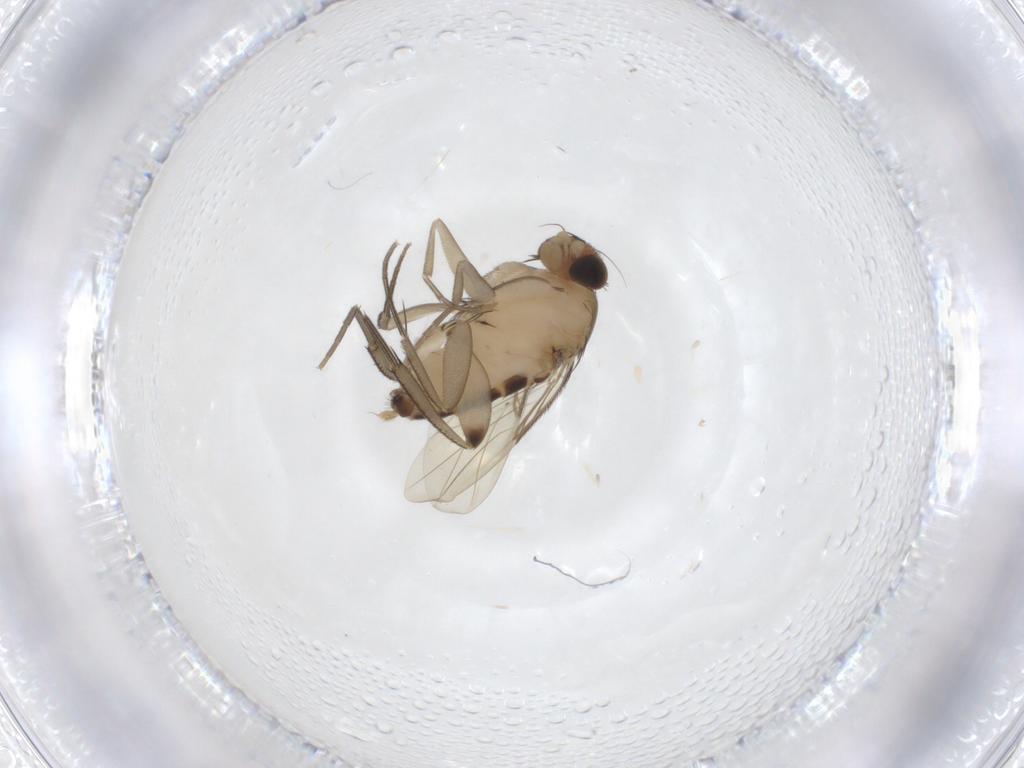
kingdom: Animalia
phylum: Arthropoda
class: Insecta
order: Diptera
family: Phoridae
